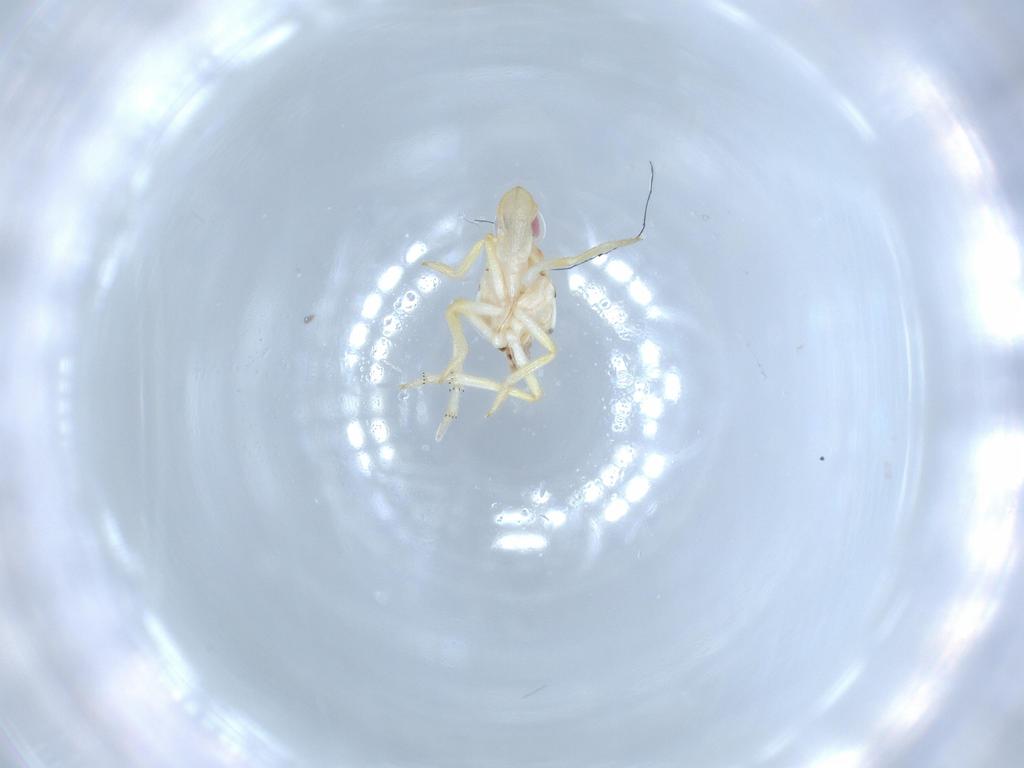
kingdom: Animalia
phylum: Arthropoda
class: Insecta
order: Hemiptera
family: Tropiduchidae
